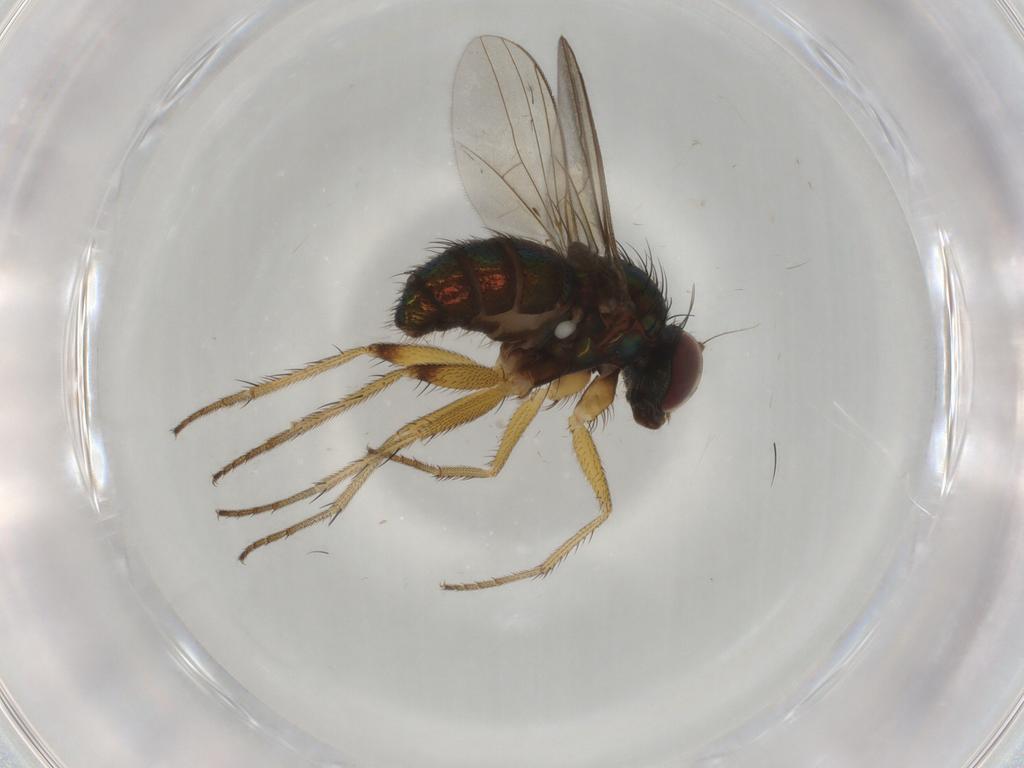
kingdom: Animalia
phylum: Arthropoda
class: Insecta
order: Diptera
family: Dolichopodidae
